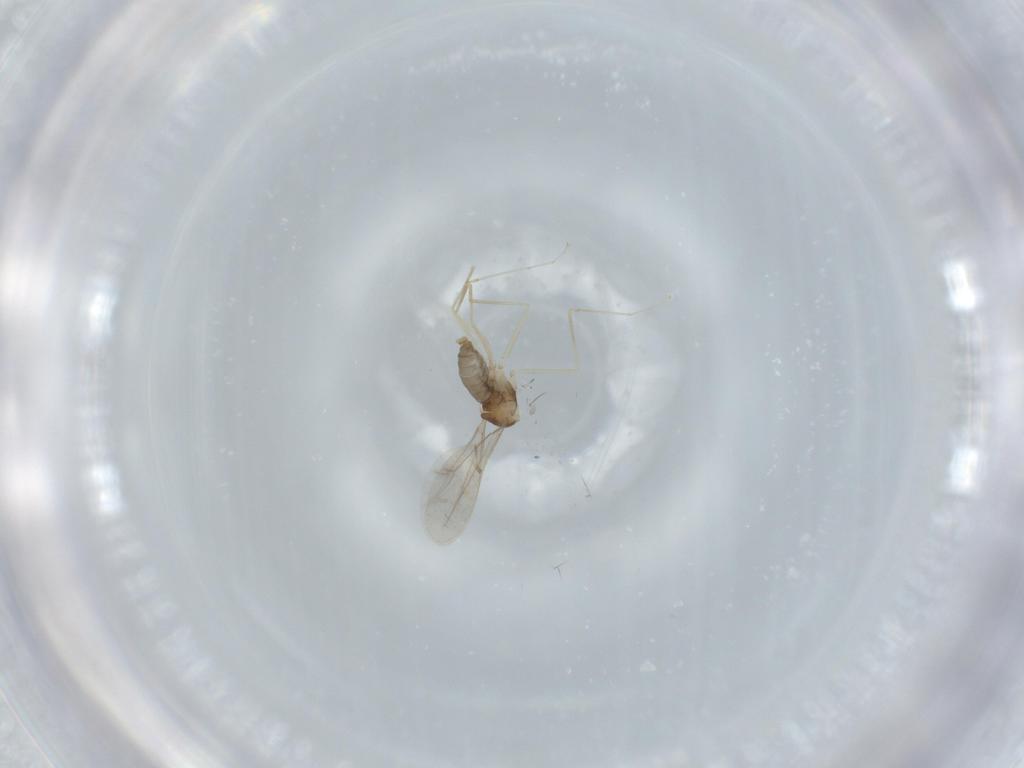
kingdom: Animalia
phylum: Arthropoda
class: Insecta
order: Diptera
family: Cecidomyiidae
